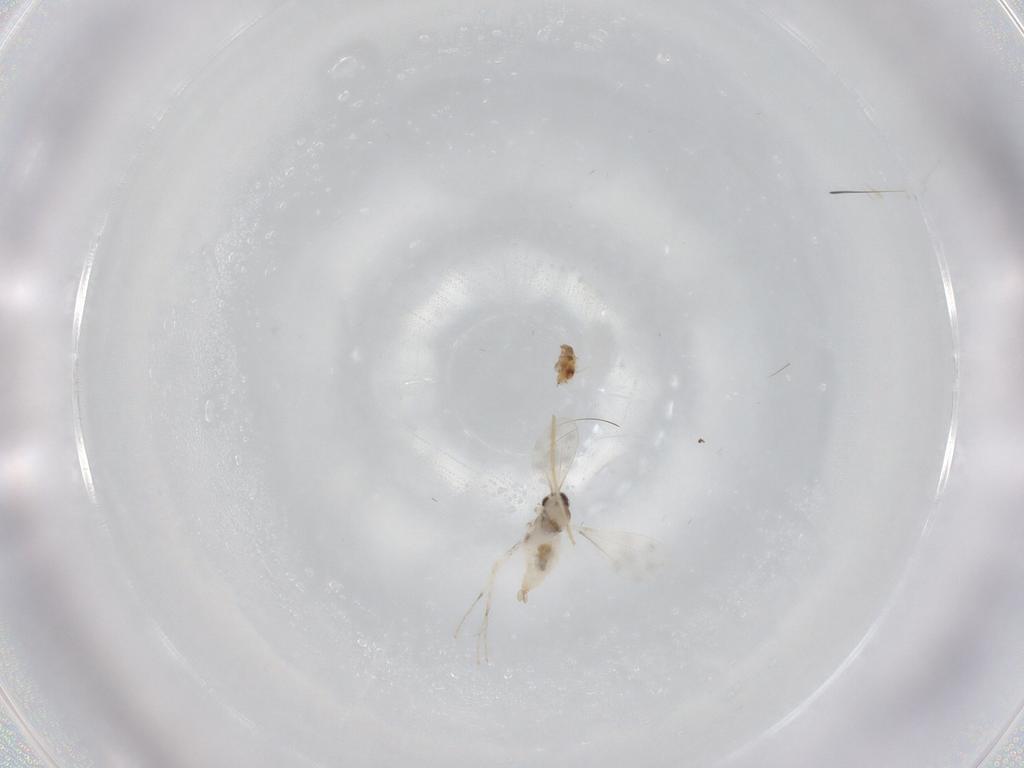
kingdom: Animalia
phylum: Arthropoda
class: Insecta
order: Diptera
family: Cecidomyiidae
